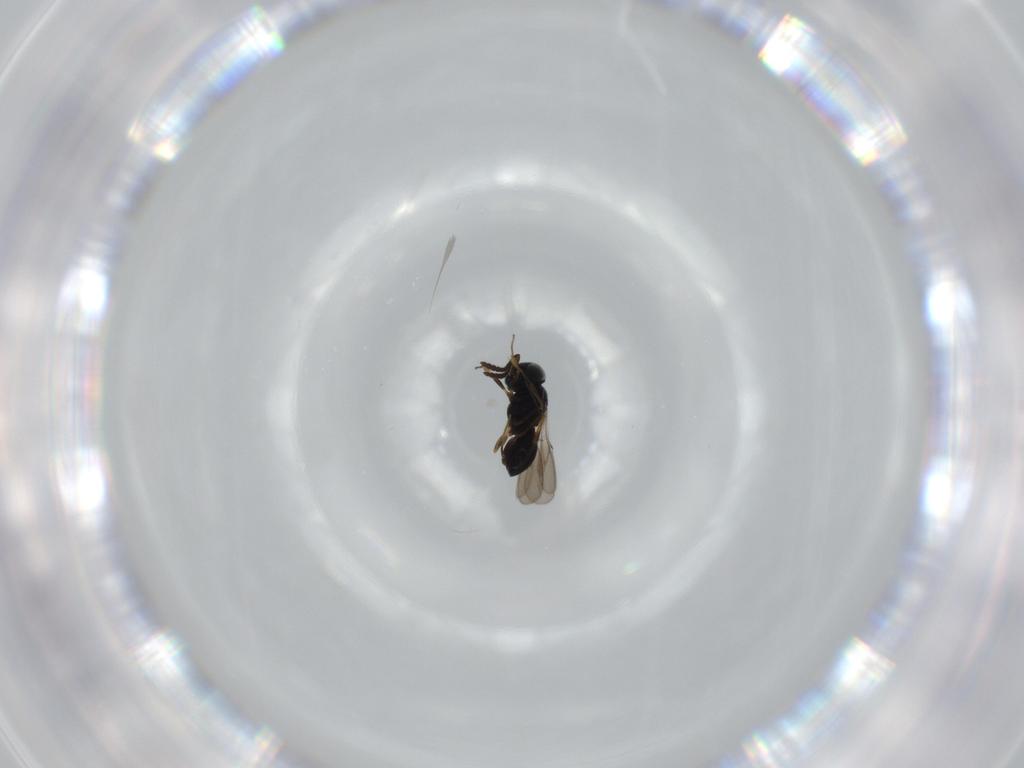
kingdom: Animalia
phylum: Arthropoda
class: Insecta
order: Hymenoptera
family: Scelionidae
